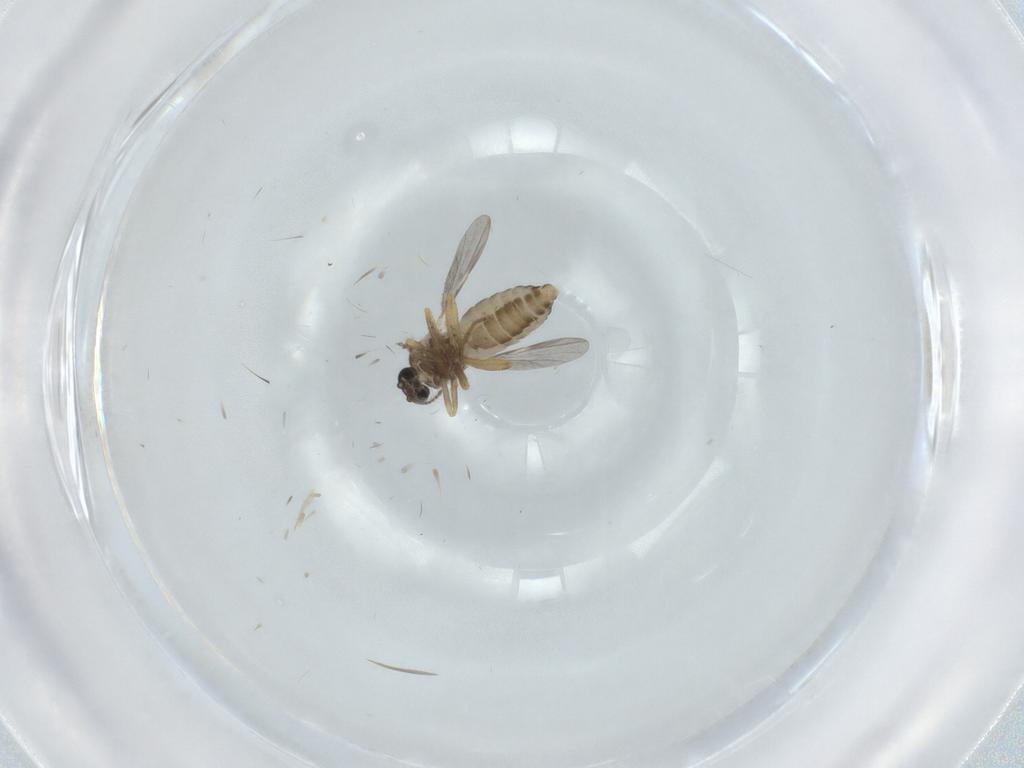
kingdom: Animalia
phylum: Arthropoda
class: Insecta
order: Diptera
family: Ceratopogonidae
